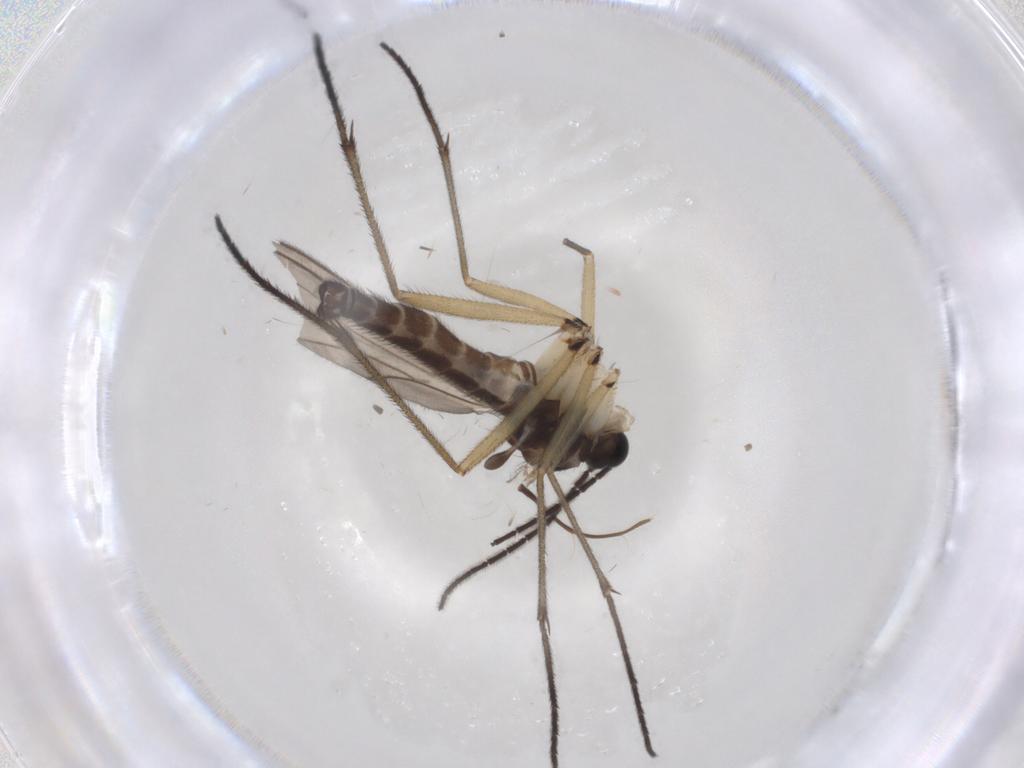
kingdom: Animalia
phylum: Arthropoda
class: Insecta
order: Diptera
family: Sciaridae
